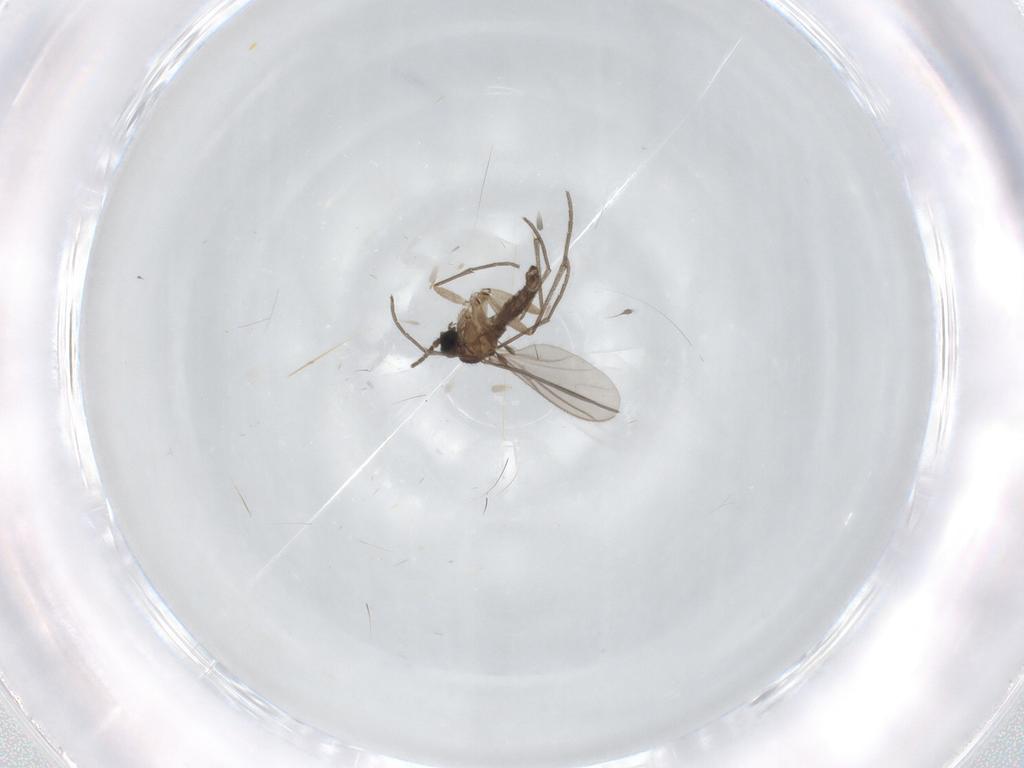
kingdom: Animalia
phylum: Arthropoda
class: Insecta
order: Diptera
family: Sciaridae
